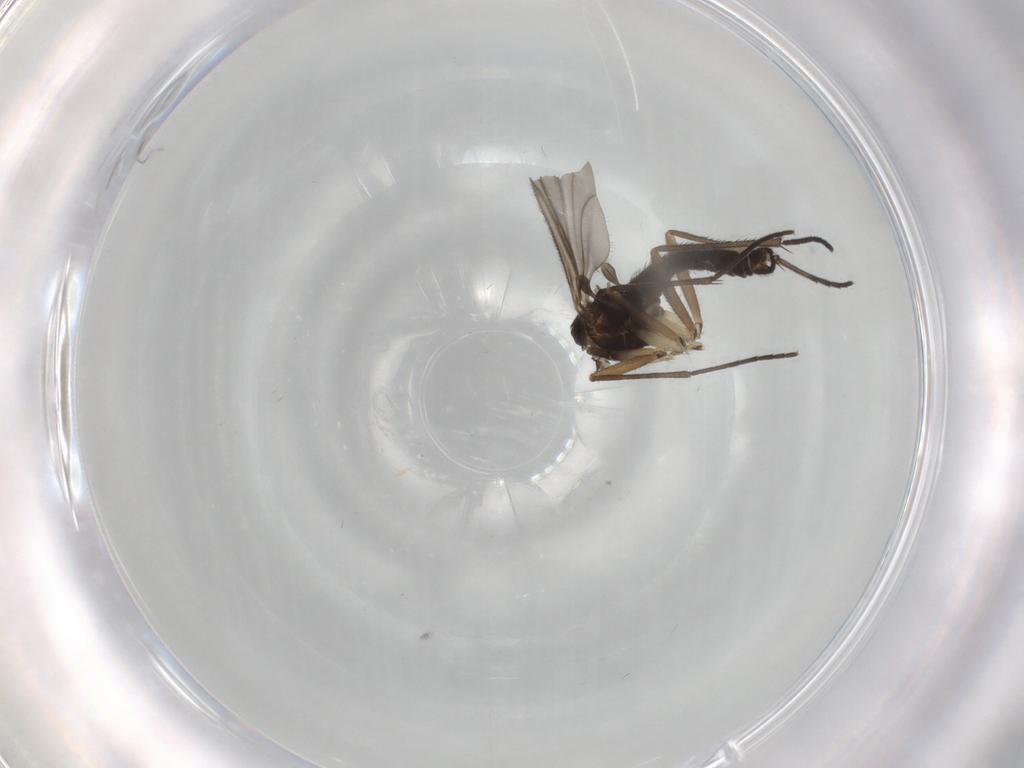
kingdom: Animalia
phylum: Arthropoda
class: Insecta
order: Diptera
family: Sciaridae
